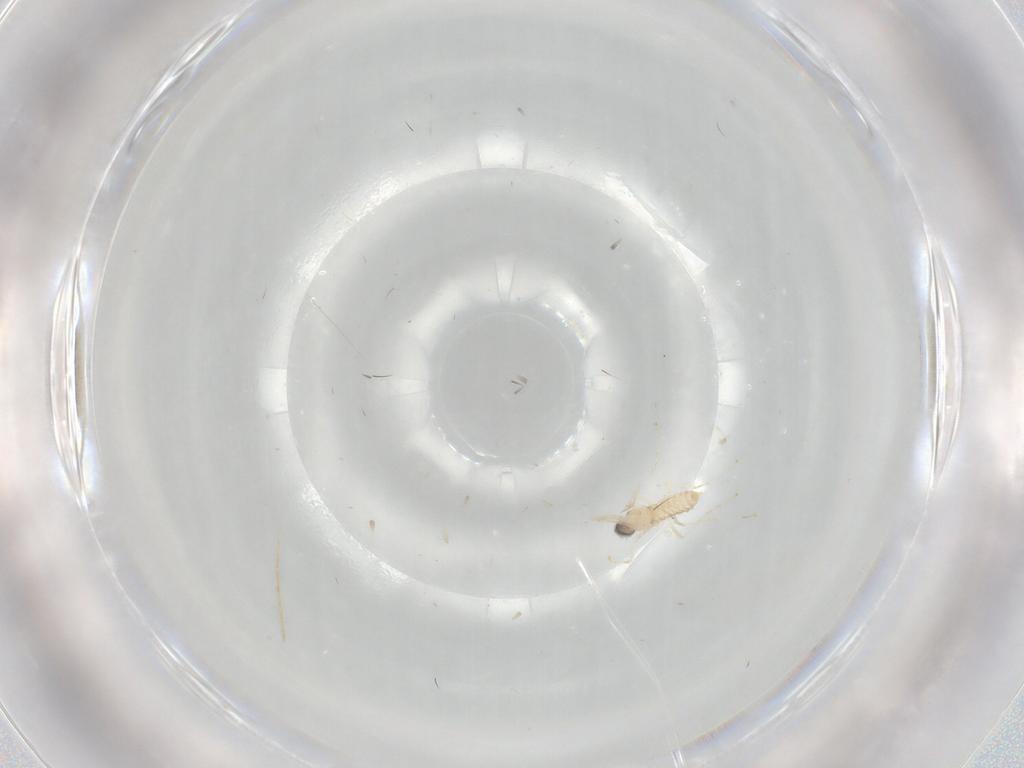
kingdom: Animalia
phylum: Arthropoda
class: Insecta
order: Diptera
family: Cecidomyiidae
